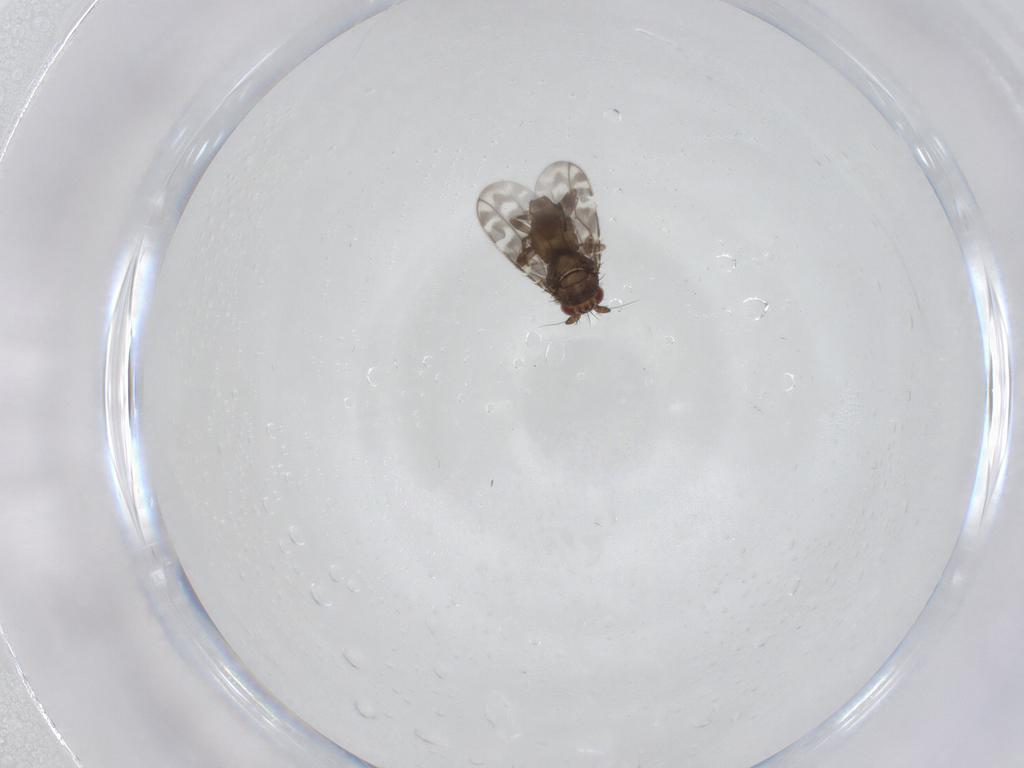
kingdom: Animalia
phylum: Arthropoda
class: Insecta
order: Diptera
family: Sphaeroceridae
